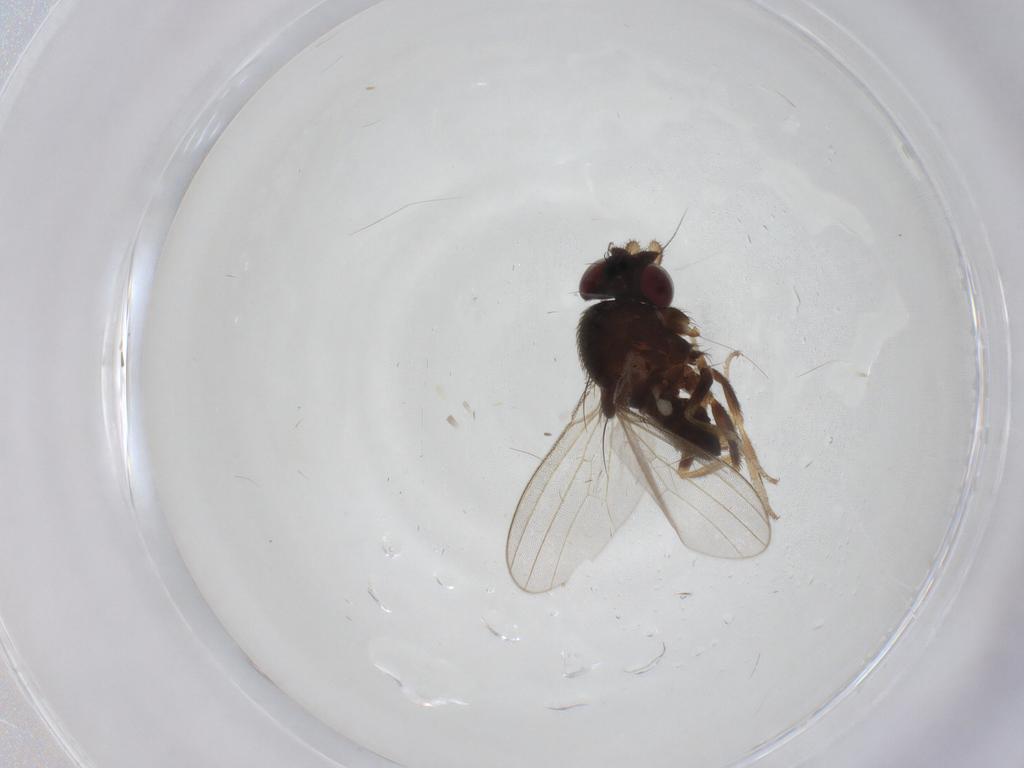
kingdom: Animalia
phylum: Arthropoda
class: Insecta
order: Diptera
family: Milichiidae
